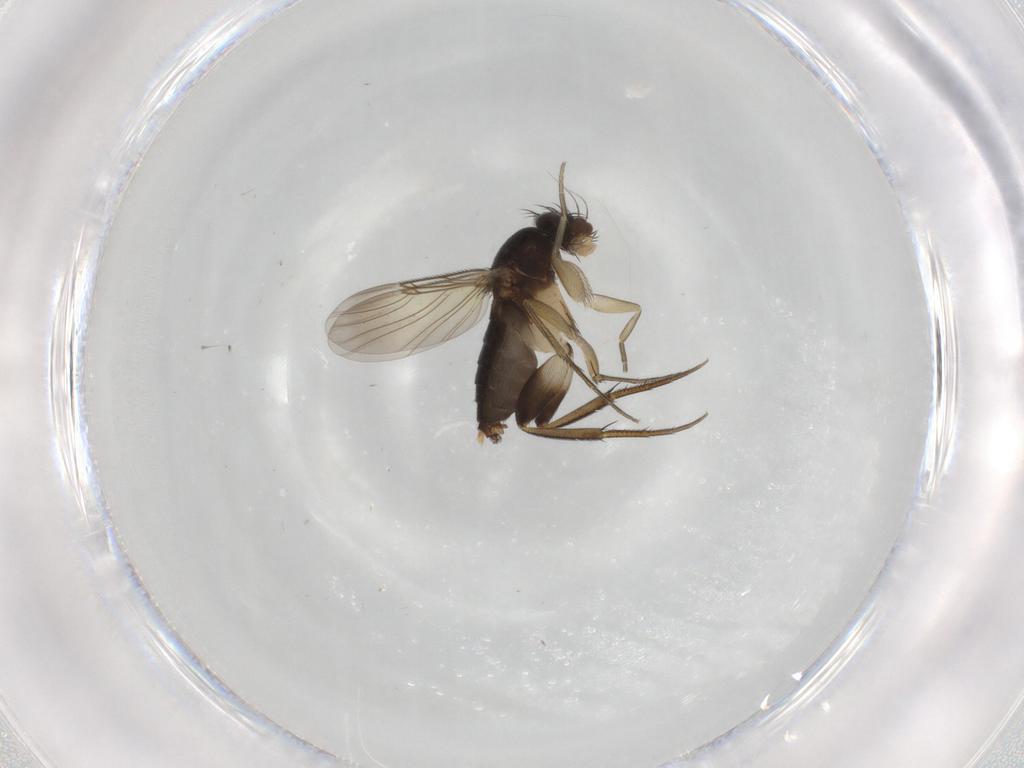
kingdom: Animalia
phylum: Arthropoda
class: Insecta
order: Diptera
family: Phoridae
